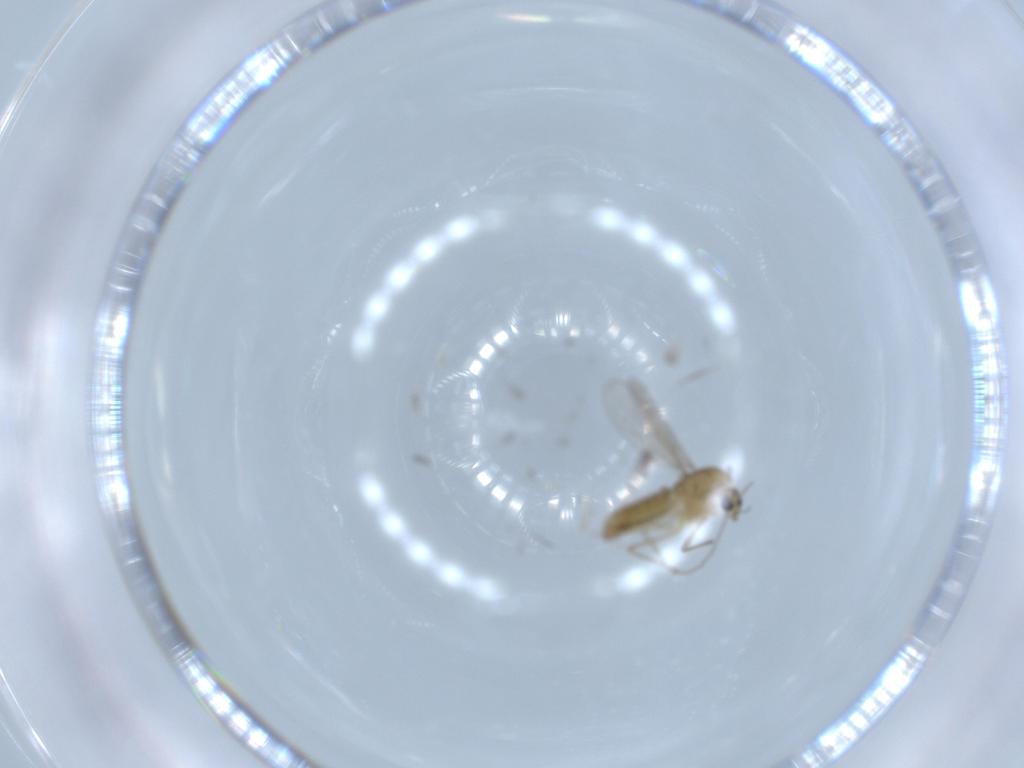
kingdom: Animalia
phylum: Arthropoda
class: Insecta
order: Diptera
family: Chironomidae
